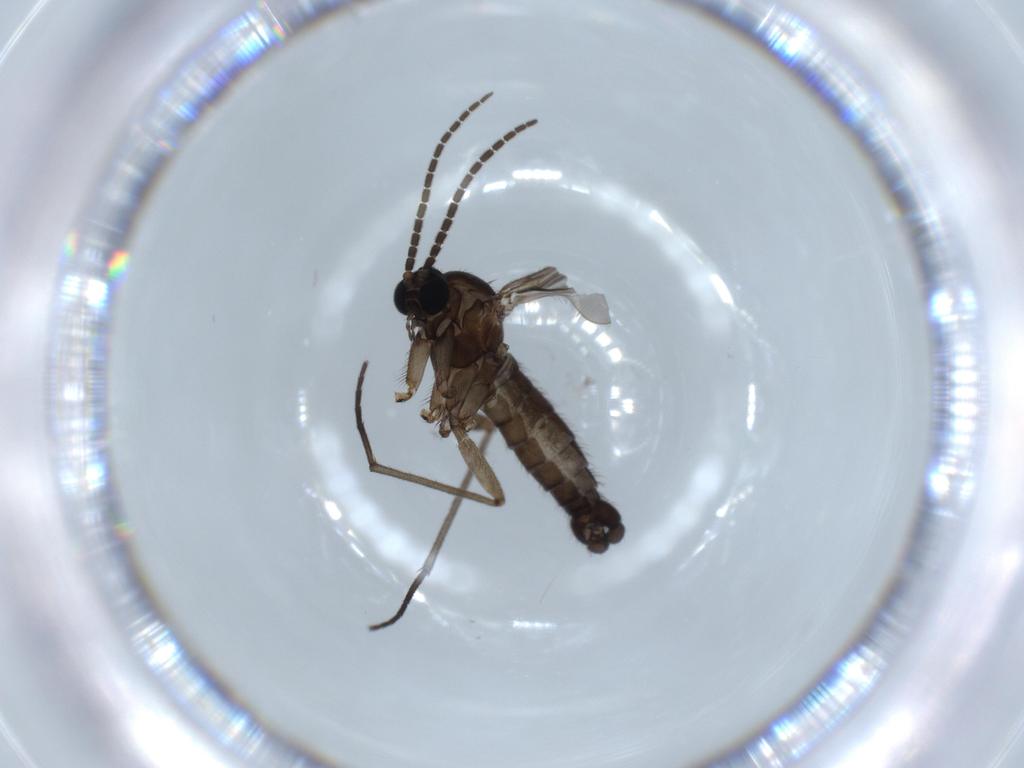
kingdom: Animalia
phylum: Arthropoda
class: Insecta
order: Diptera
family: Sciaridae
